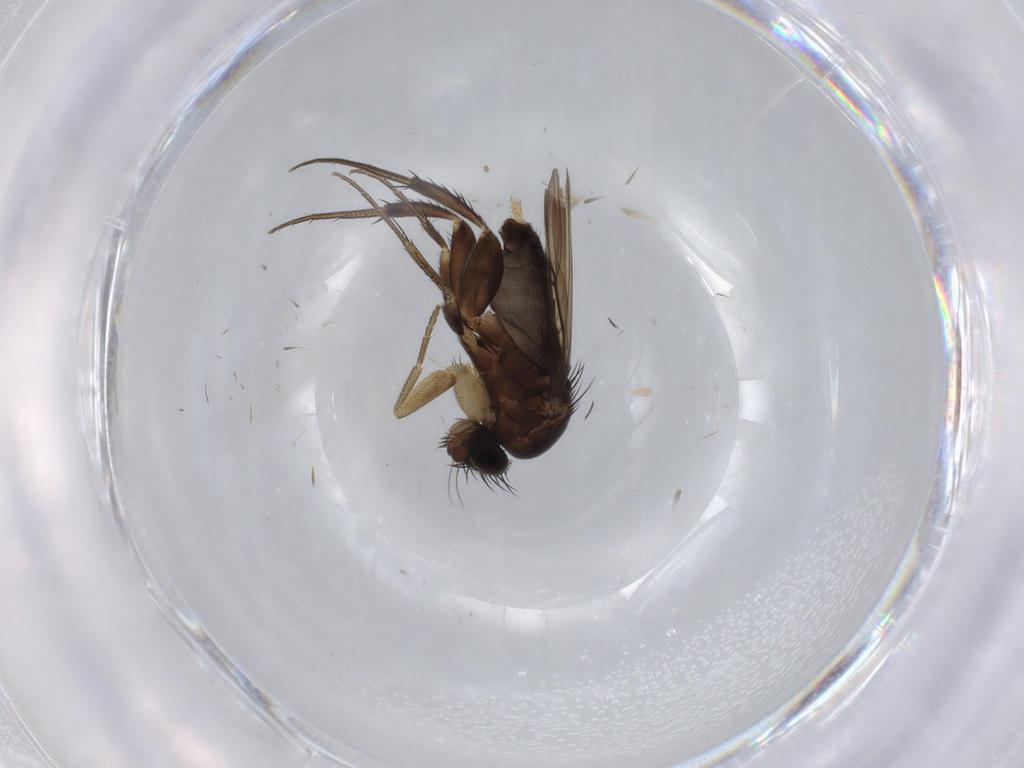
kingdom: Animalia
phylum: Arthropoda
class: Insecta
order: Diptera
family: Phoridae
